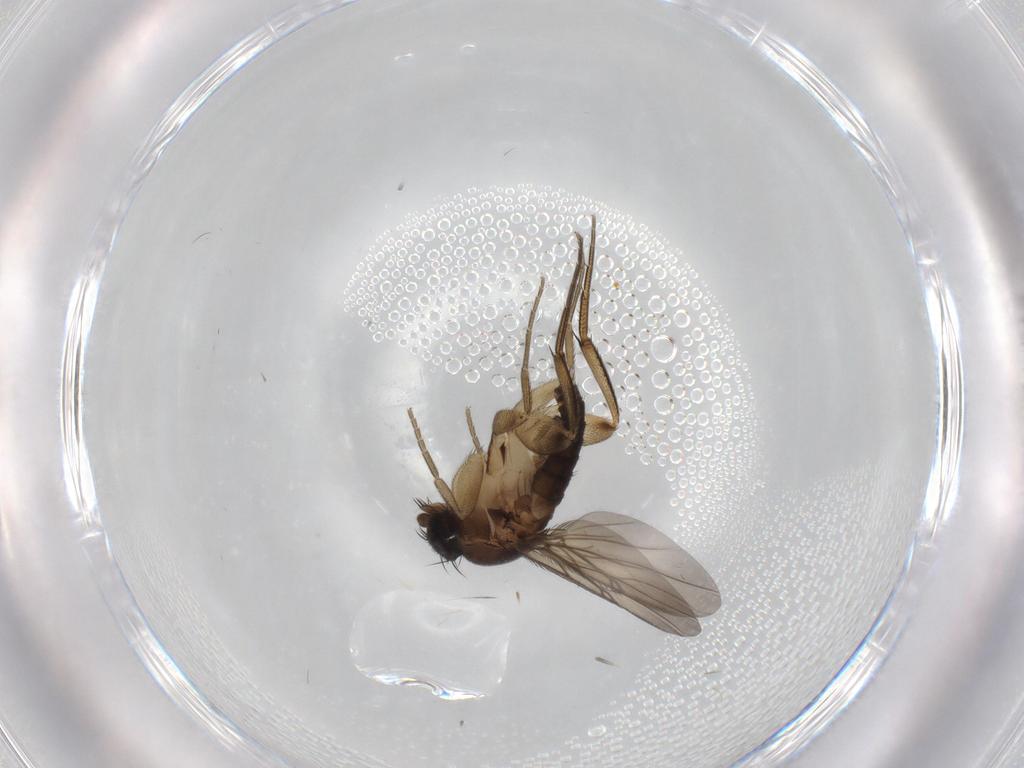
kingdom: Animalia
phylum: Arthropoda
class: Insecta
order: Diptera
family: Phoridae
